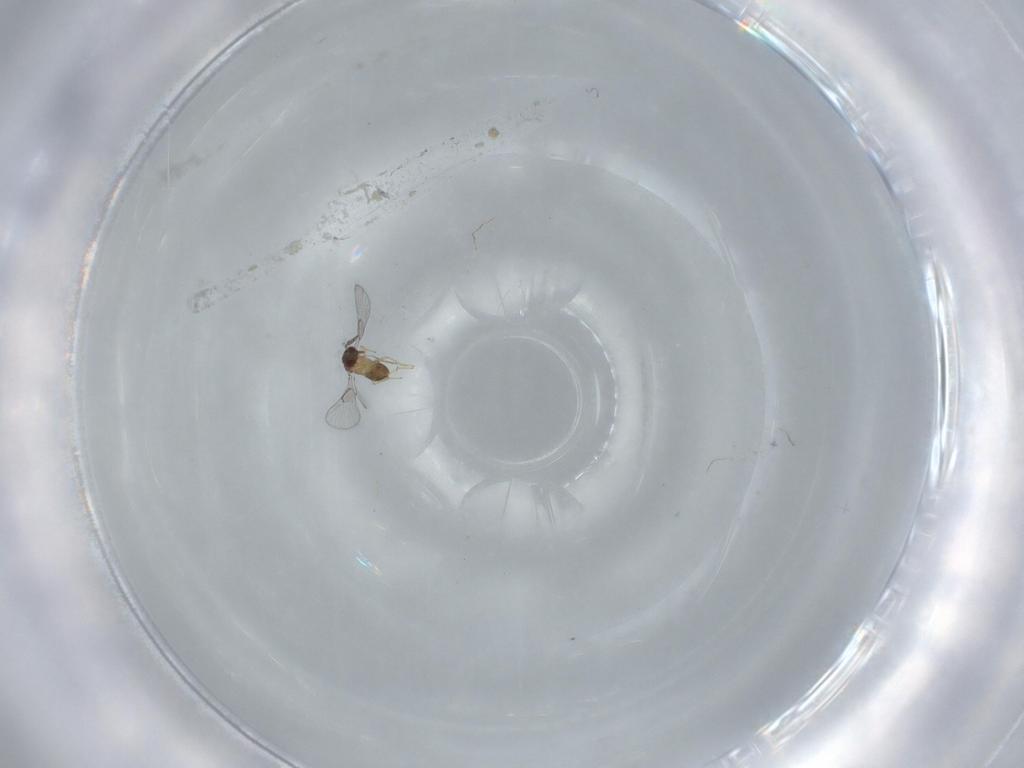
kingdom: Animalia
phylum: Arthropoda
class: Insecta
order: Hymenoptera
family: Trichogrammatidae
